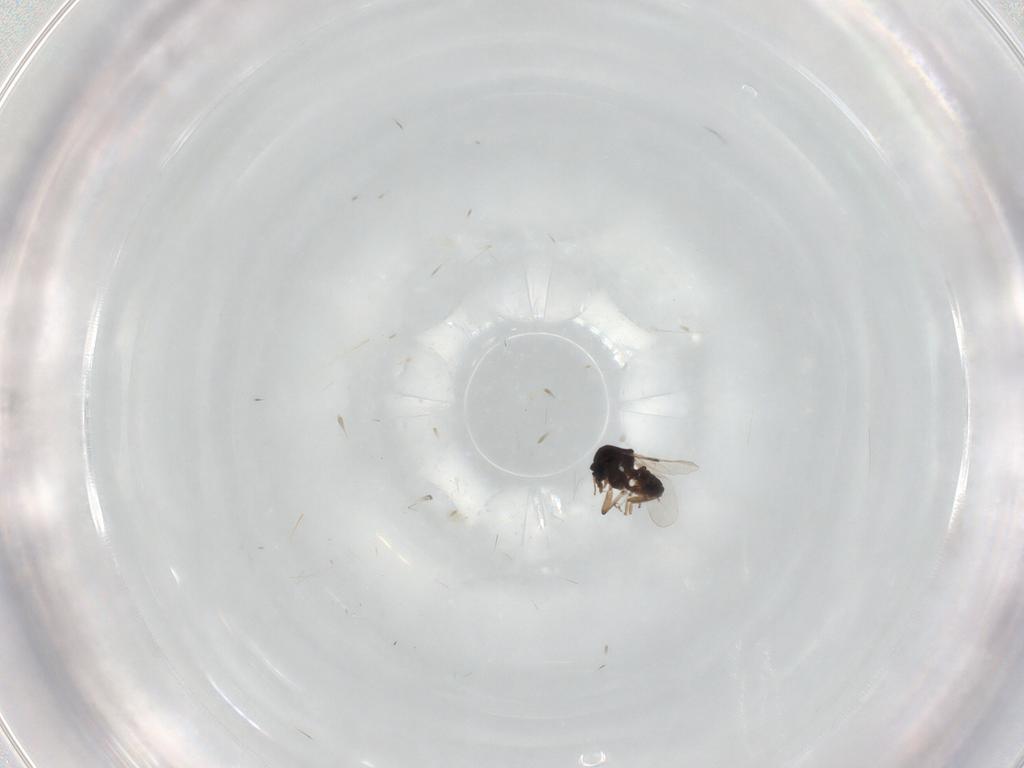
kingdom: Animalia
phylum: Arthropoda
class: Insecta
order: Diptera
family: Ceratopogonidae
